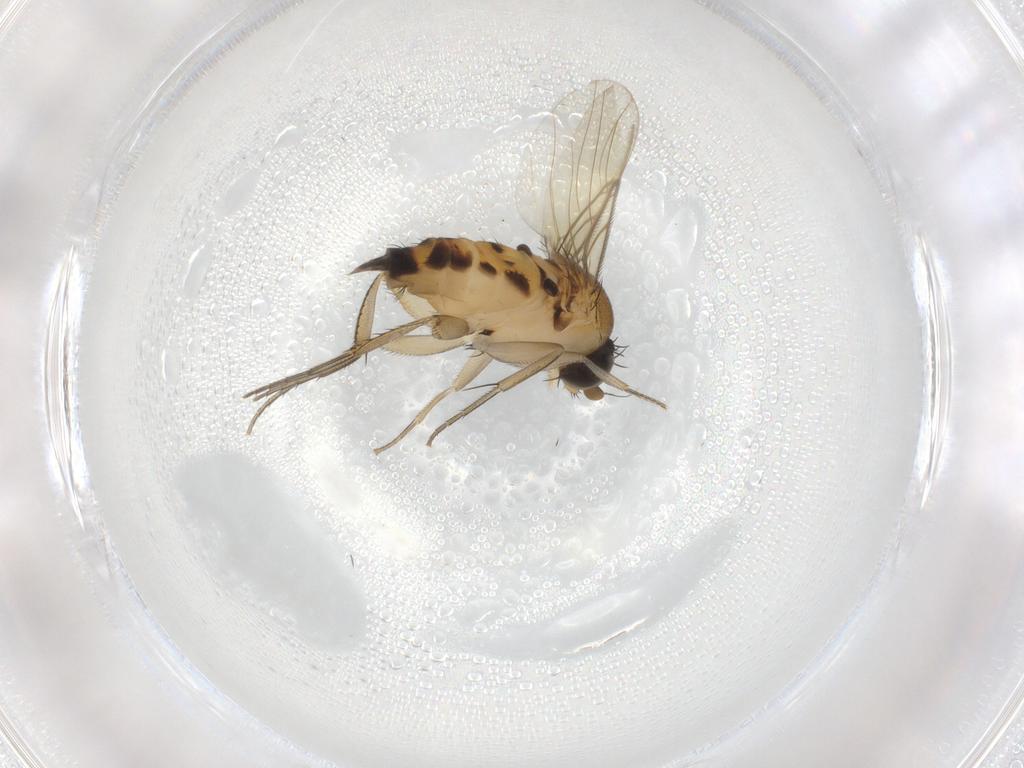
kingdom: Animalia
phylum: Arthropoda
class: Insecta
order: Diptera
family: Phoridae
